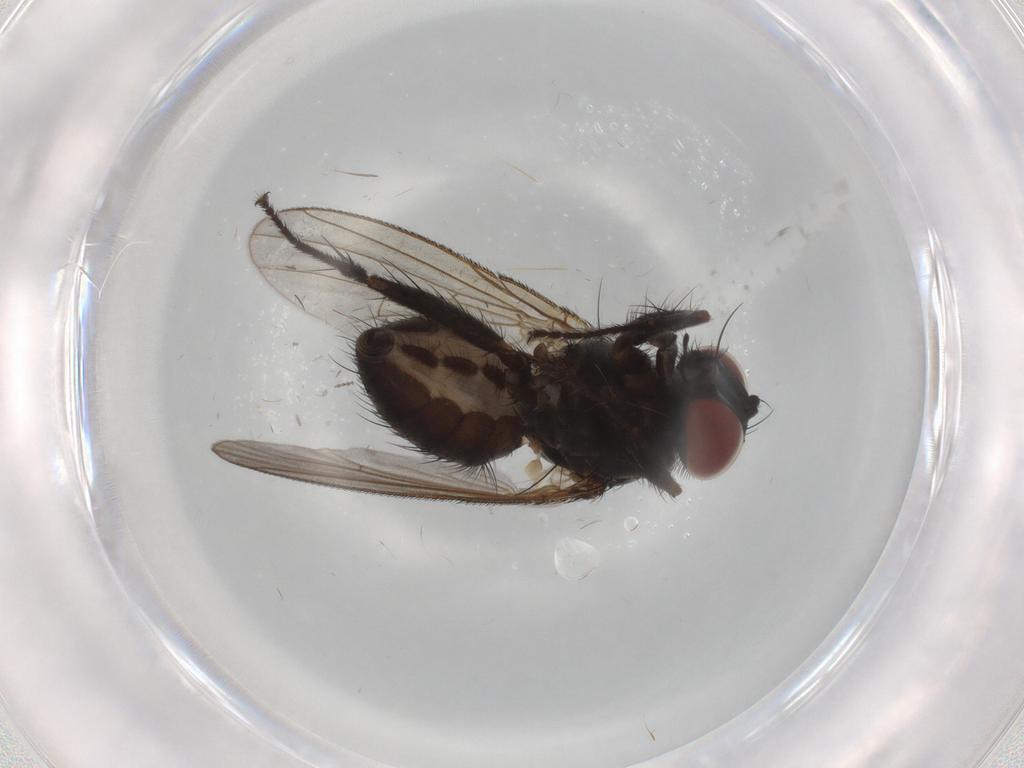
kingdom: Animalia
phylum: Arthropoda
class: Insecta
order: Diptera
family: Muscidae
